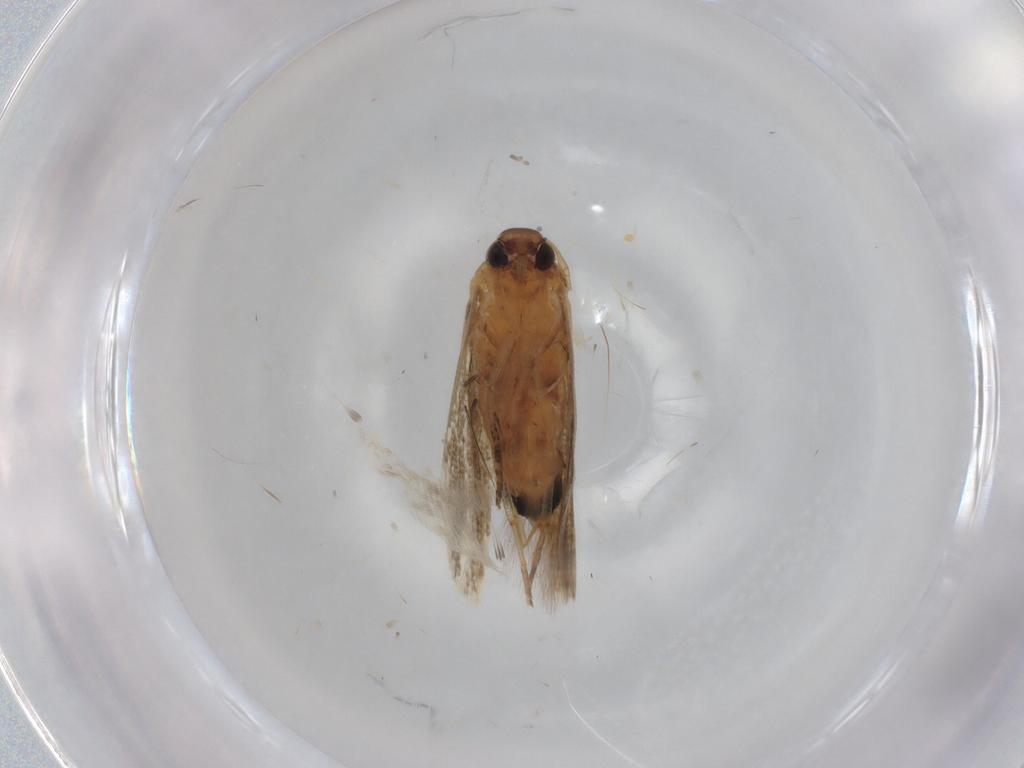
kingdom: Animalia
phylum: Arthropoda
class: Insecta
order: Lepidoptera
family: Cosmopterigidae
